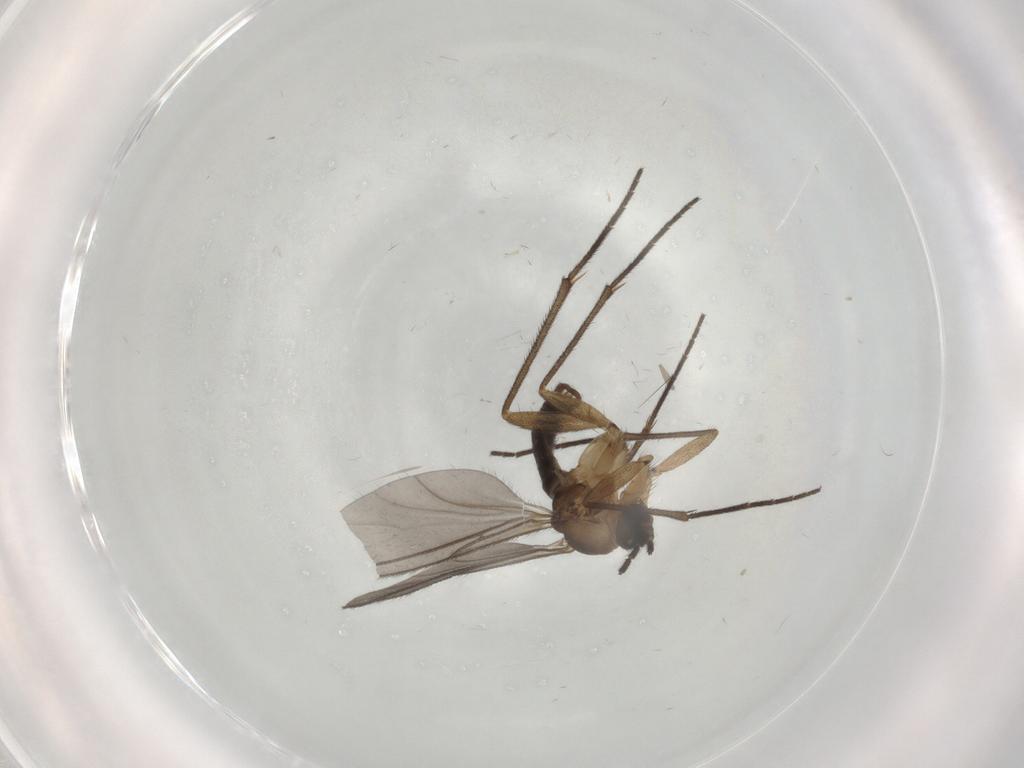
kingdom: Animalia
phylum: Arthropoda
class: Insecta
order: Diptera
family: Sciaridae
